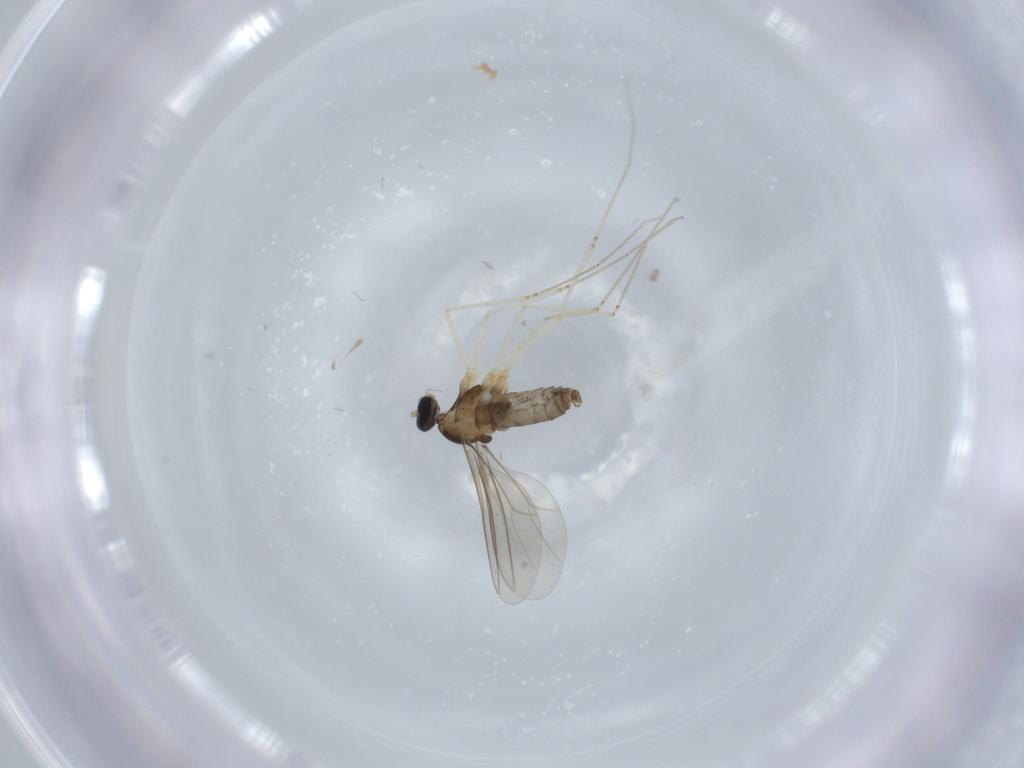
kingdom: Animalia
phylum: Arthropoda
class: Insecta
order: Diptera
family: Cecidomyiidae
